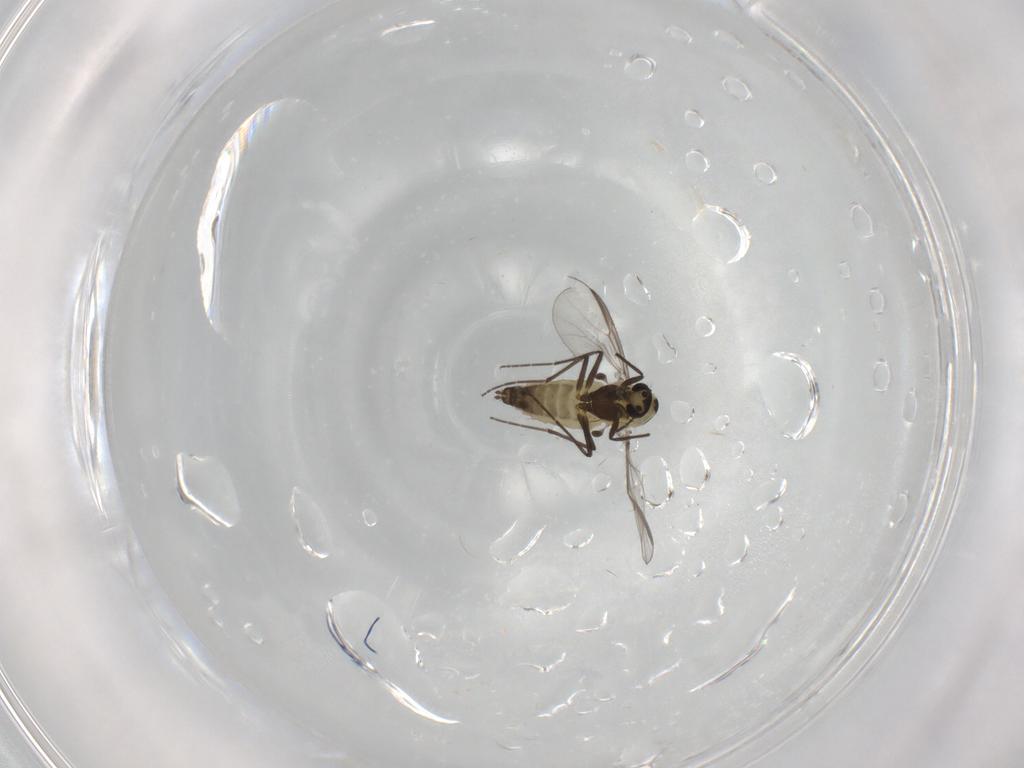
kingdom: Animalia
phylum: Arthropoda
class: Insecta
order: Diptera
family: Chironomidae
